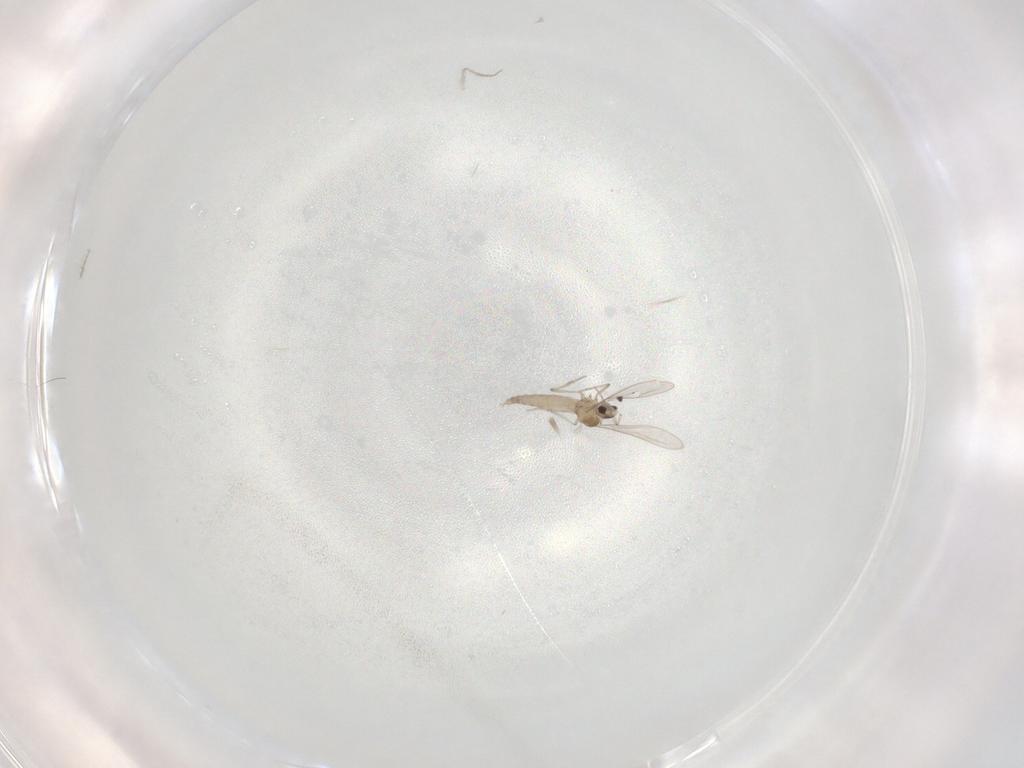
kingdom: Animalia
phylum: Arthropoda
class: Insecta
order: Diptera
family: Cecidomyiidae
